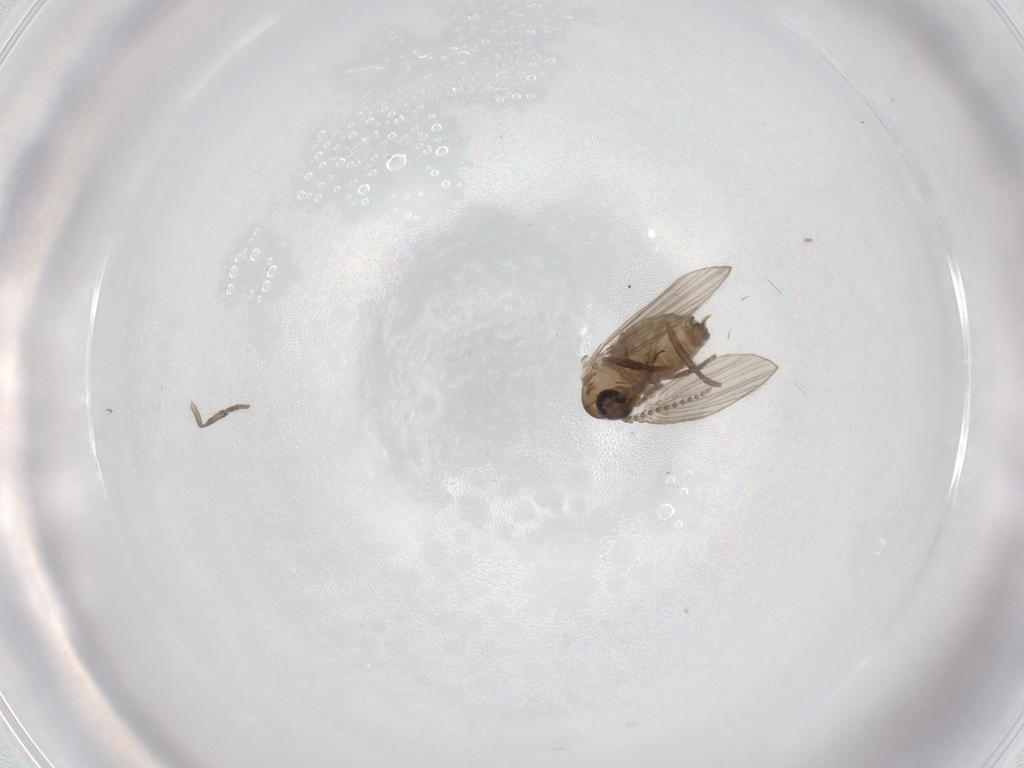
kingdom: Animalia
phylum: Arthropoda
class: Insecta
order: Diptera
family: Psychodidae
